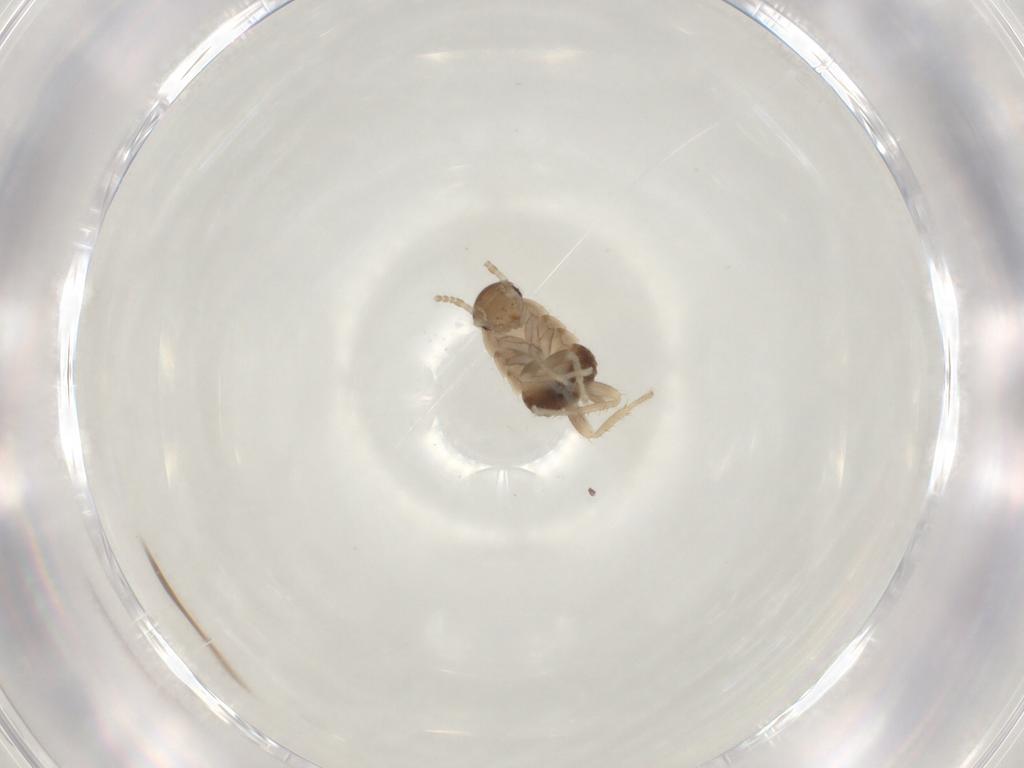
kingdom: Animalia
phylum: Arthropoda
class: Insecta
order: Blattodea
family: Ectobiidae
